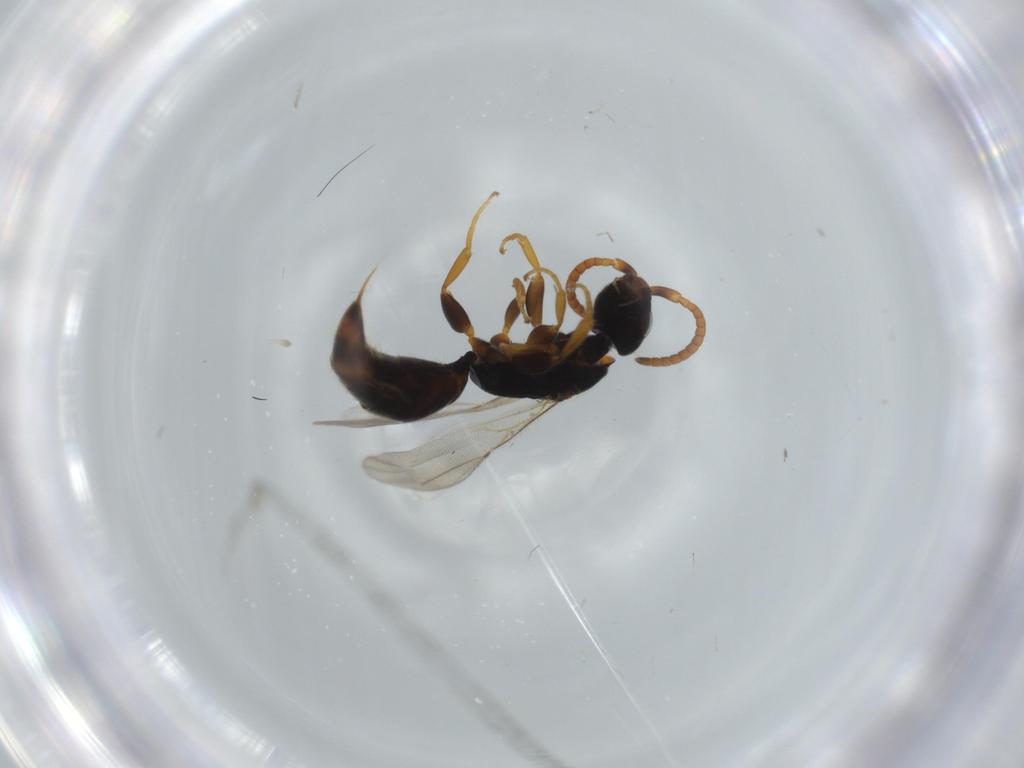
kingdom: Animalia
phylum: Arthropoda
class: Insecta
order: Hymenoptera
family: Bethylidae
